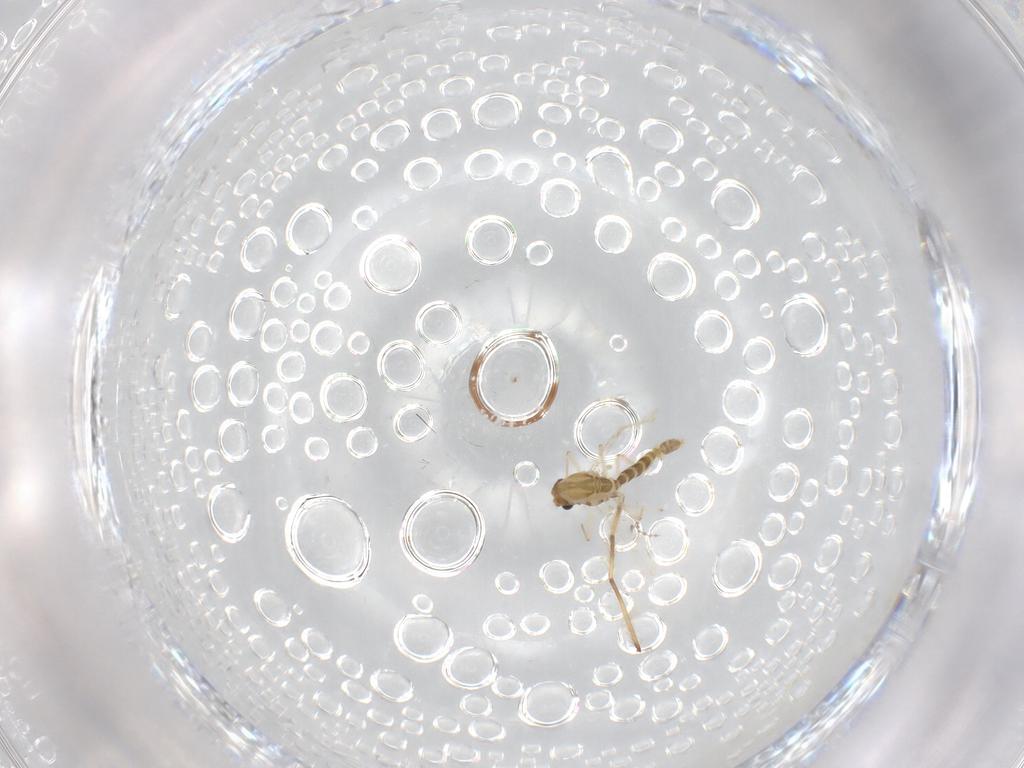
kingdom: Animalia
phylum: Arthropoda
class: Insecta
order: Diptera
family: Chironomidae
